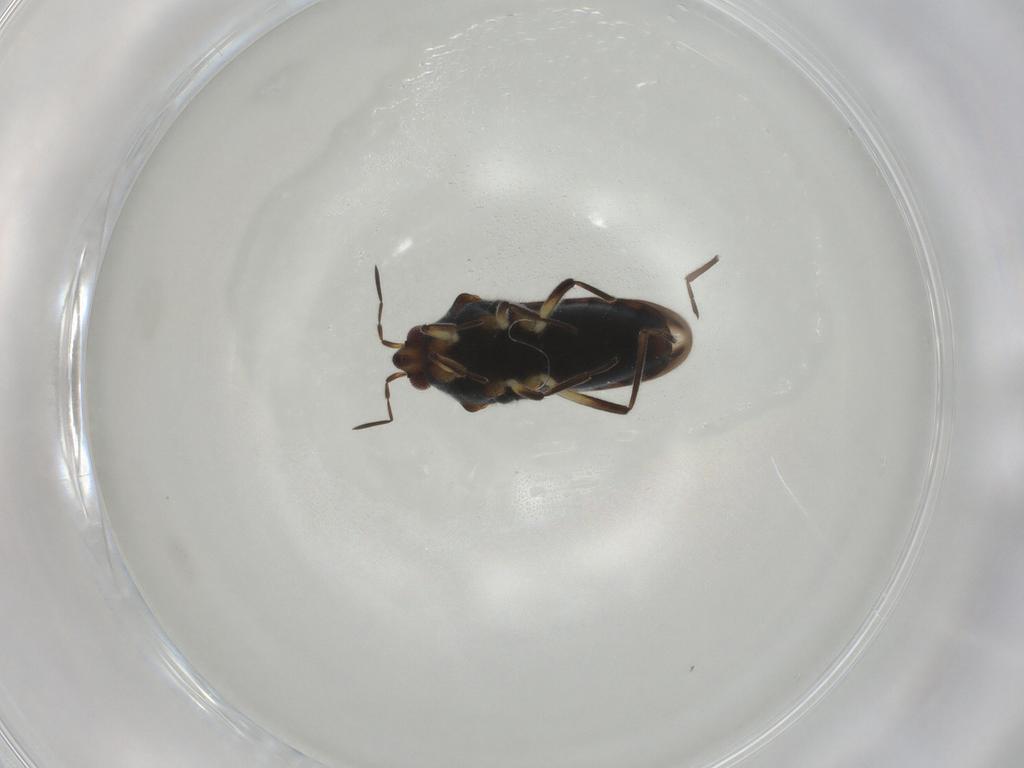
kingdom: Animalia
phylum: Arthropoda
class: Insecta
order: Hemiptera
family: Veliidae
